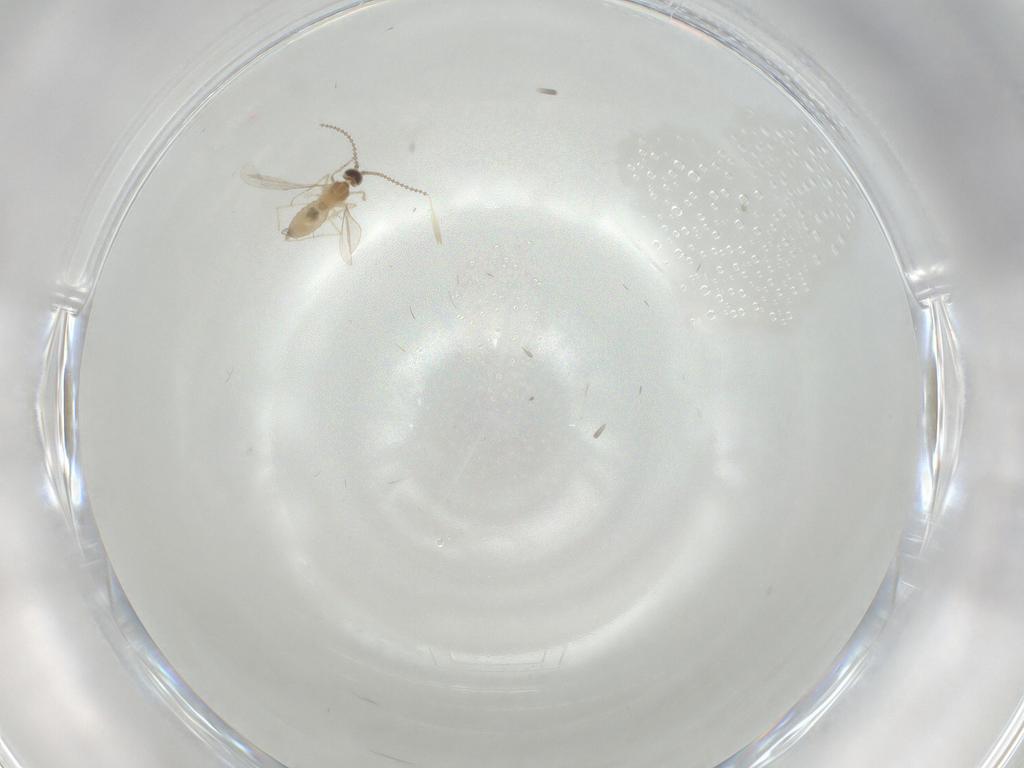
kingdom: Animalia
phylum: Arthropoda
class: Insecta
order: Diptera
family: Cecidomyiidae
